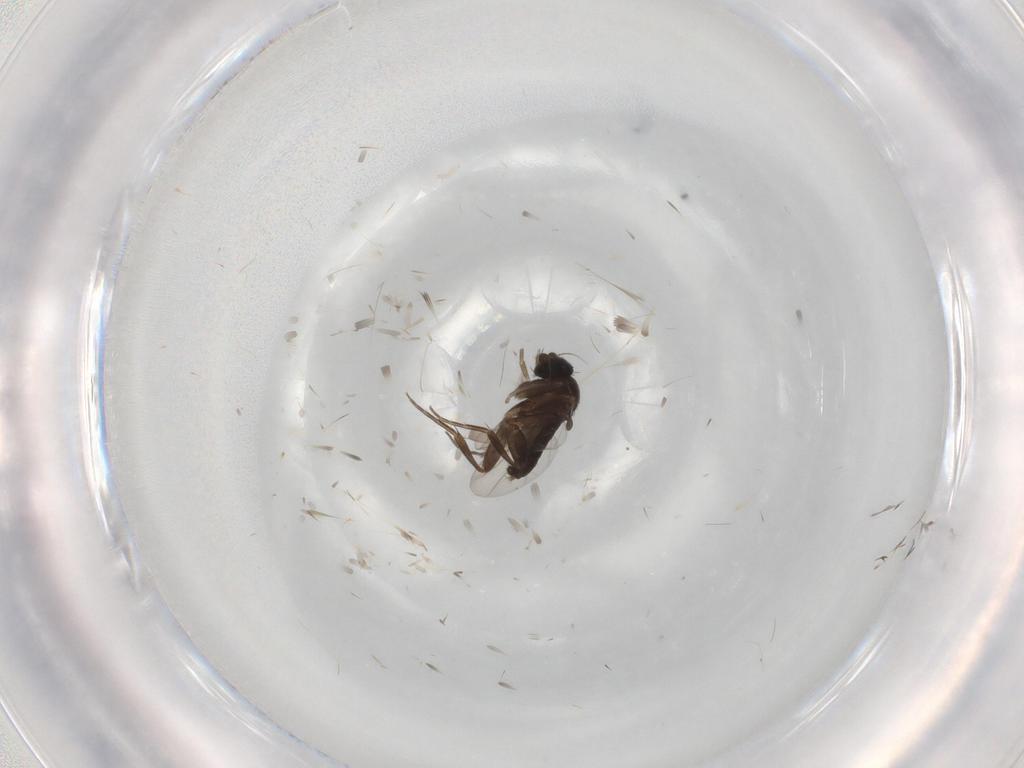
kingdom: Animalia
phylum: Arthropoda
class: Insecta
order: Diptera
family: Phoridae
